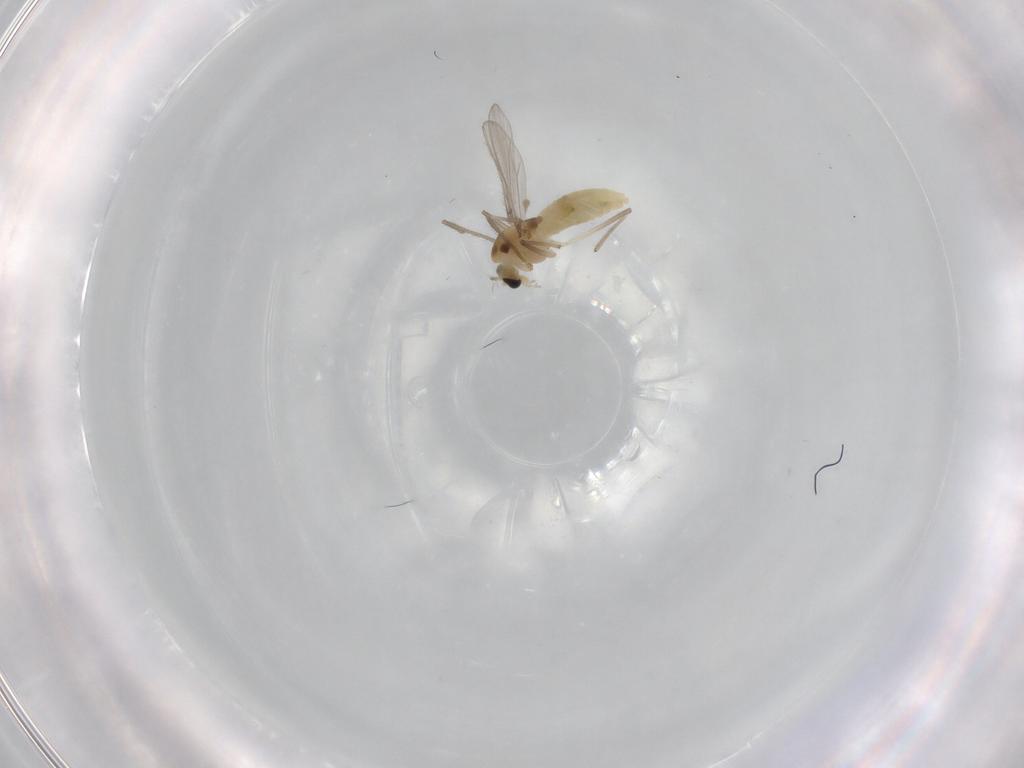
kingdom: Animalia
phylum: Arthropoda
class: Insecta
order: Diptera
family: Chironomidae
